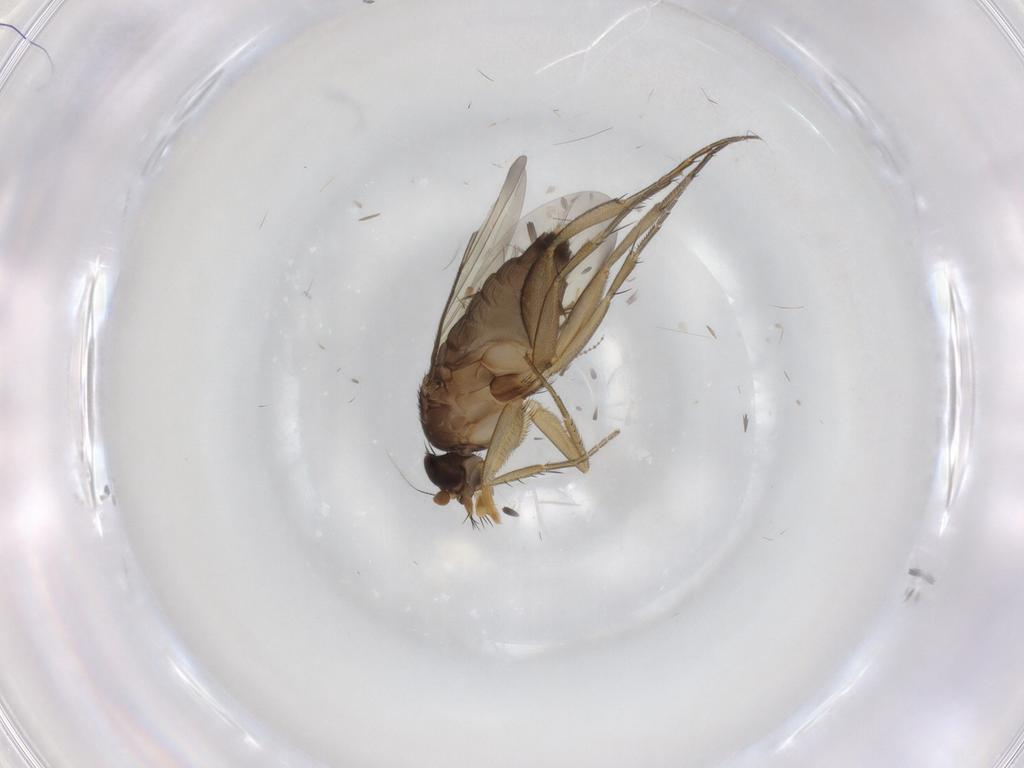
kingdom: Animalia
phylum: Arthropoda
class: Insecta
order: Diptera
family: Phoridae
